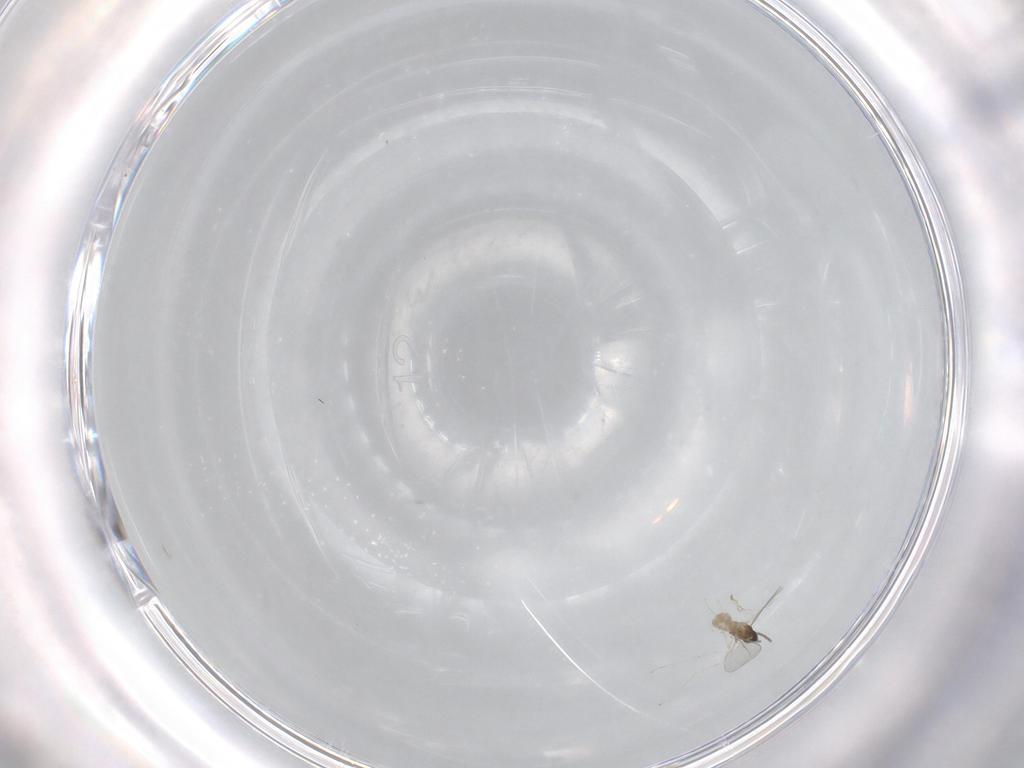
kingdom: Animalia
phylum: Arthropoda
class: Insecta
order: Diptera
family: Cecidomyiidae
